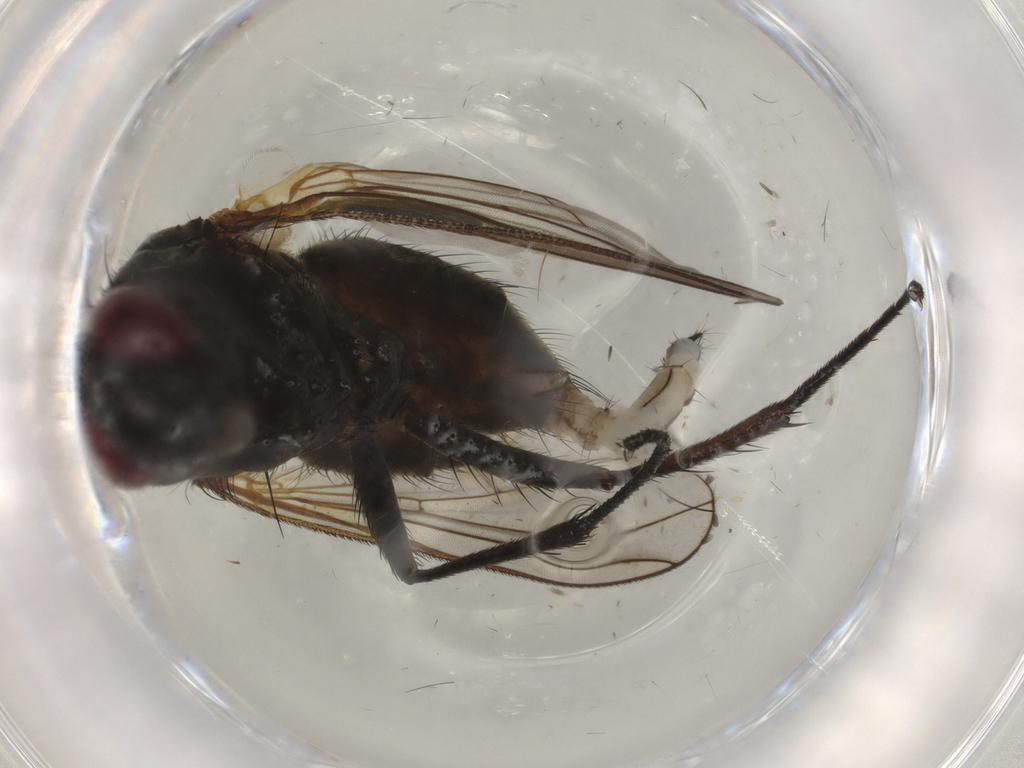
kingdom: Animalia
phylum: Arthropoda
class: Insecta
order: Diptera
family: Muscidae
